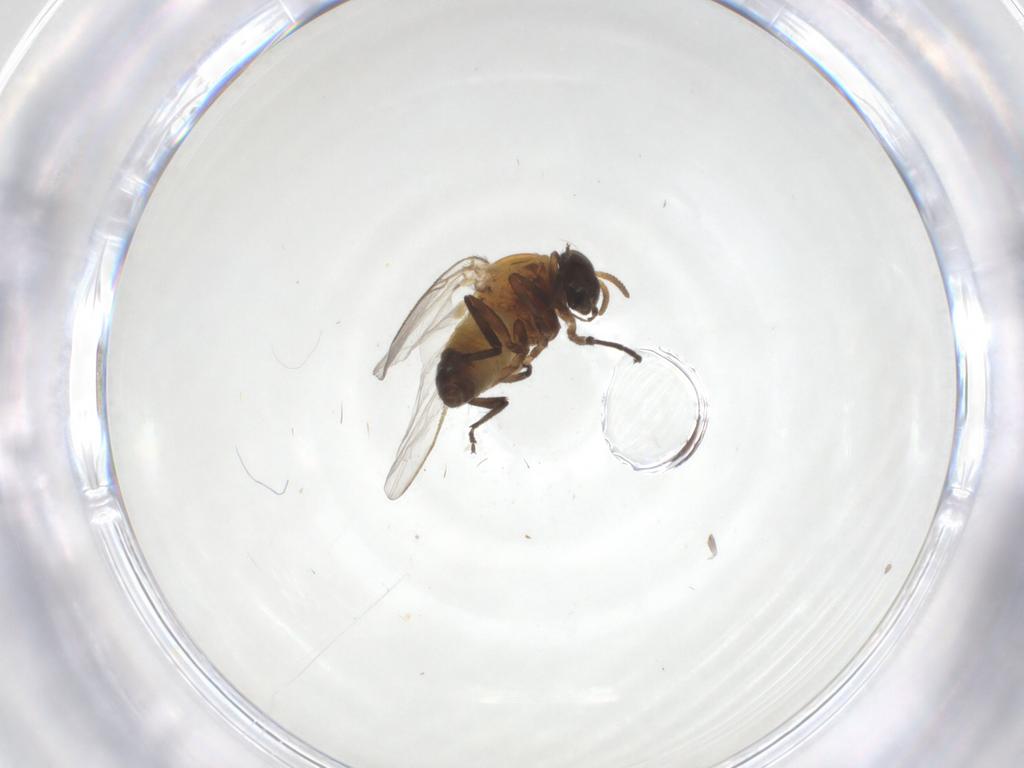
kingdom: Animalia
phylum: Arthropoda
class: Insecta
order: Diptera
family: Simuliidae
